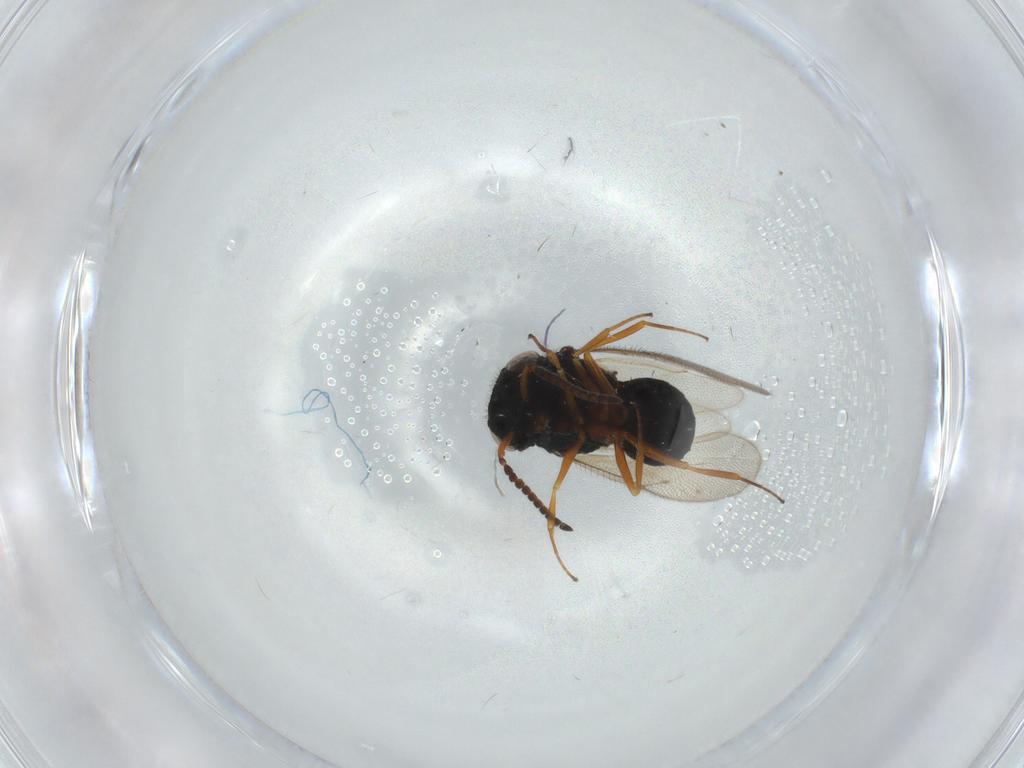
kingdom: Animalia
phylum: Arthropoda
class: Insecta
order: Hymenoptera
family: Scelionidae
